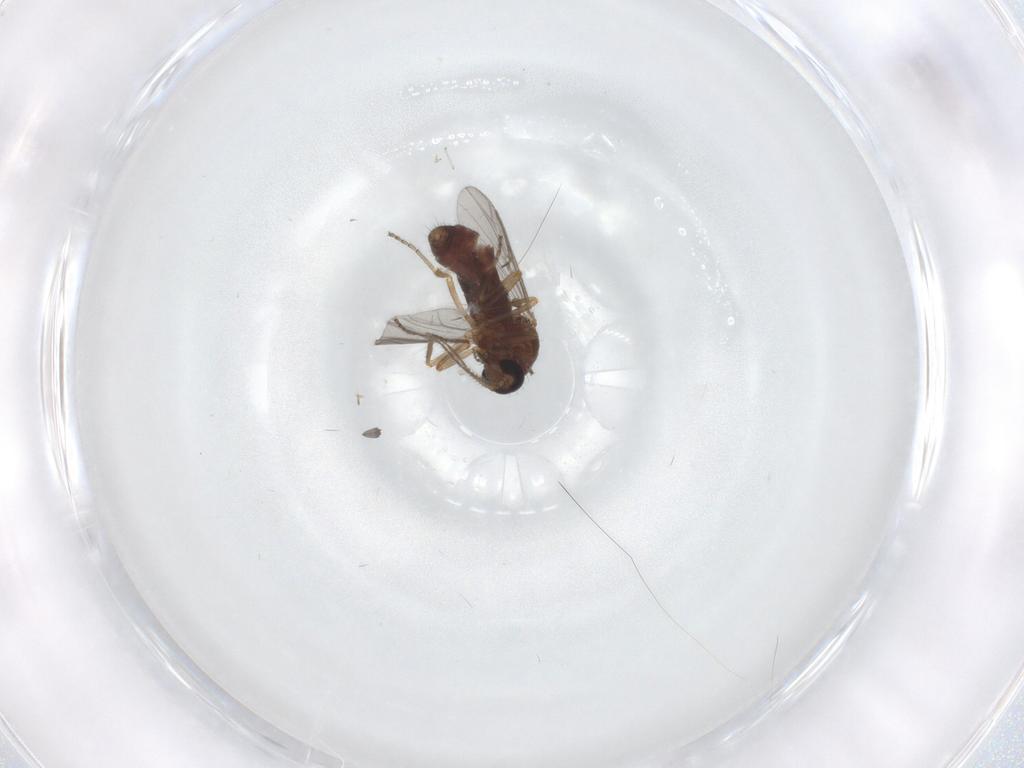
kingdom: Animalia
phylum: Arthropoda
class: Insecta
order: Diptera
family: Ceratopogonidae
